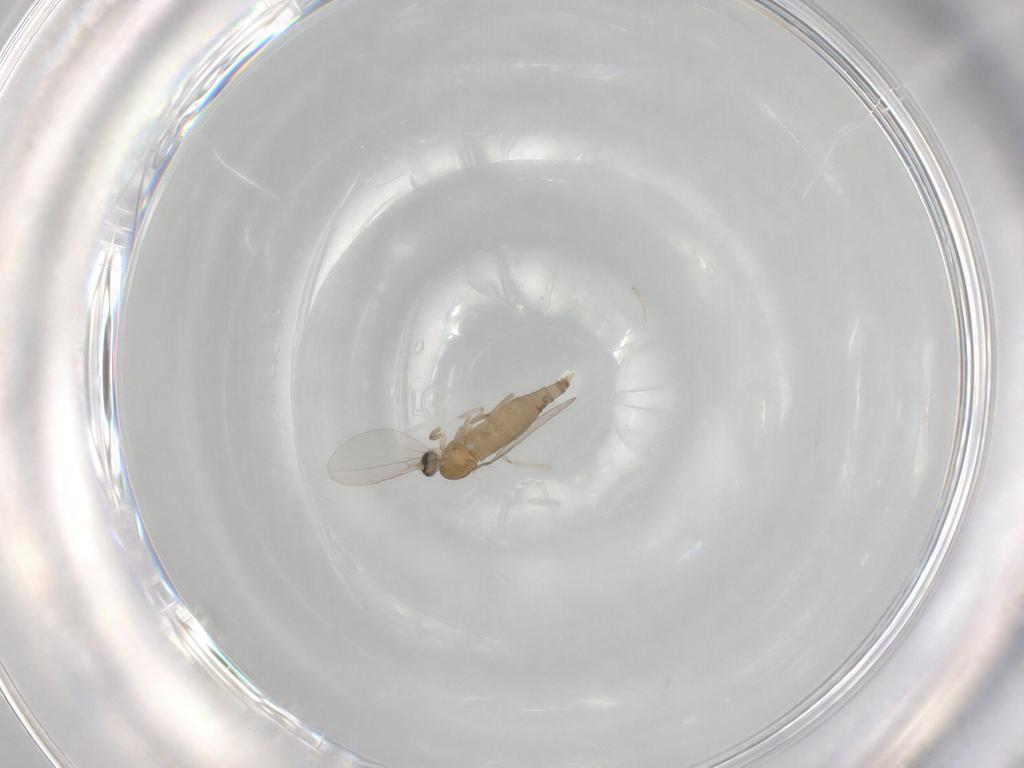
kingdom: Animalia
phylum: Arthropoda
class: Insecta
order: Diptera
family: Cecidomyiidae
